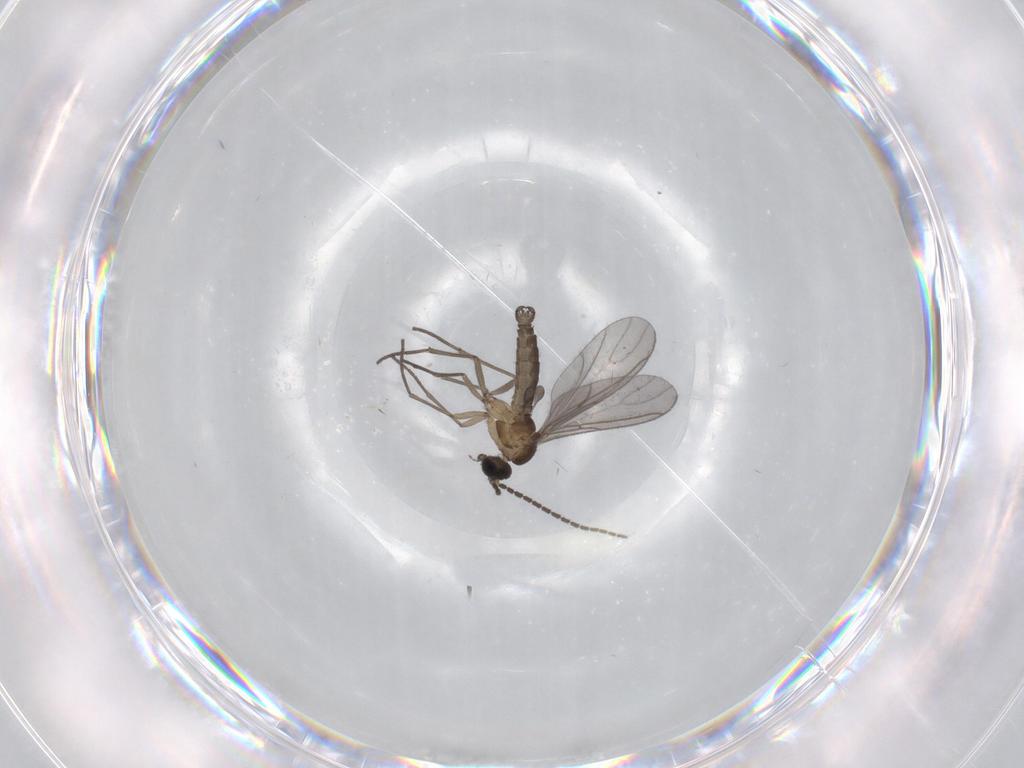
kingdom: Animalia
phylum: Arthropoda
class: Insecta
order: Diptera
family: Sciaridae
